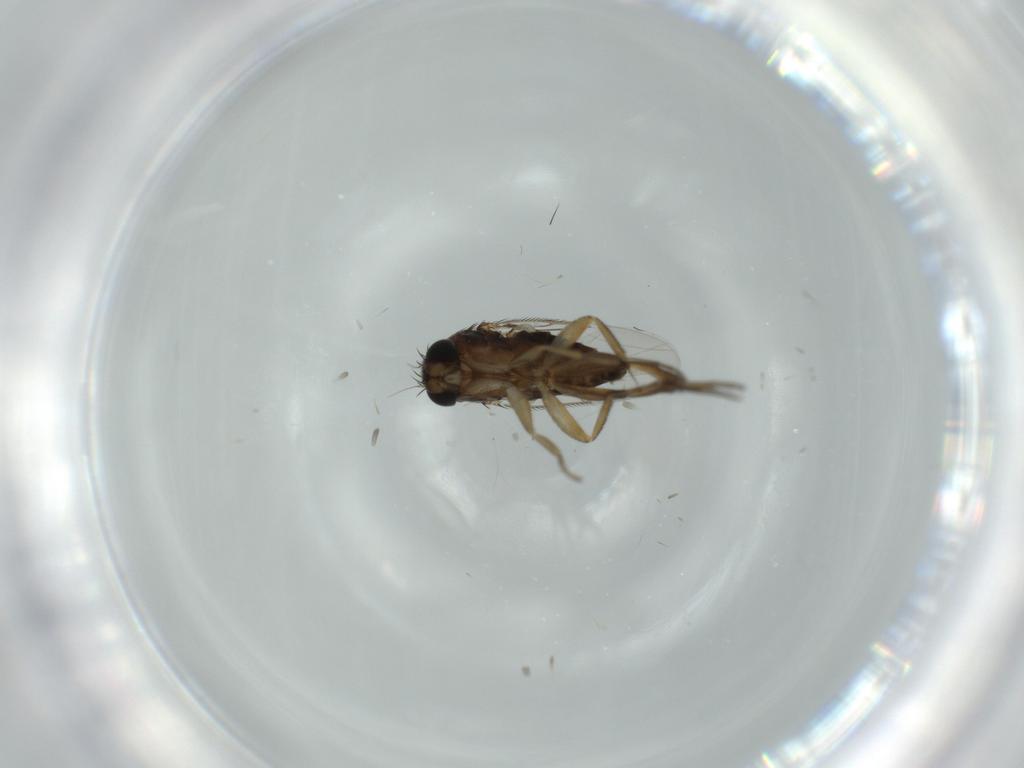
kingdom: Animalia
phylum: Arthropoda
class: Insecta
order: Diptera
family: Phoridae
